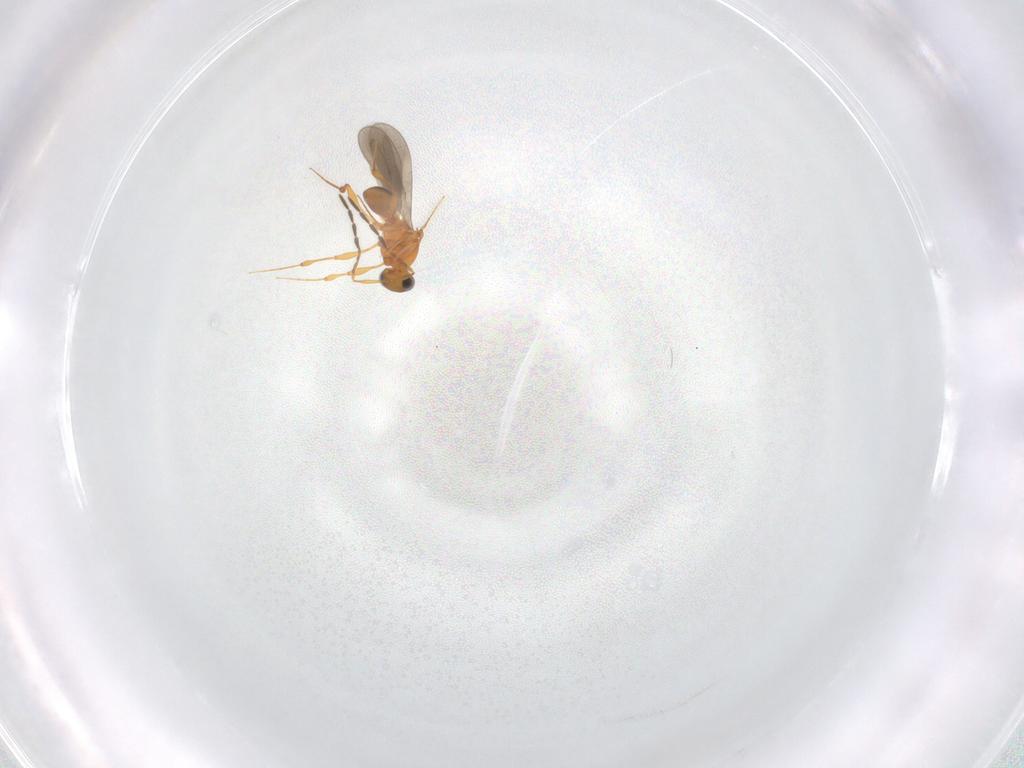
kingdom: Animalia
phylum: Arthropoda
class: Insecta
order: Hymenoptera
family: Platygastridae
